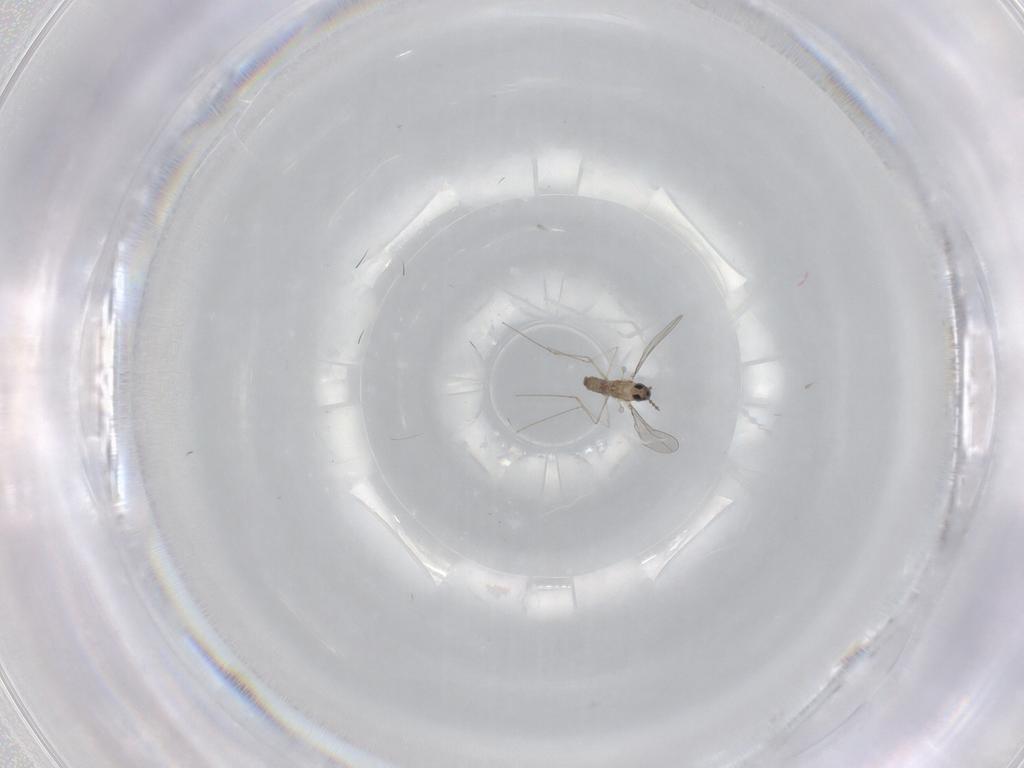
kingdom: Animalia
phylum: Arthropoda
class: Insecta
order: Diptera
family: Cecidomyiidae
